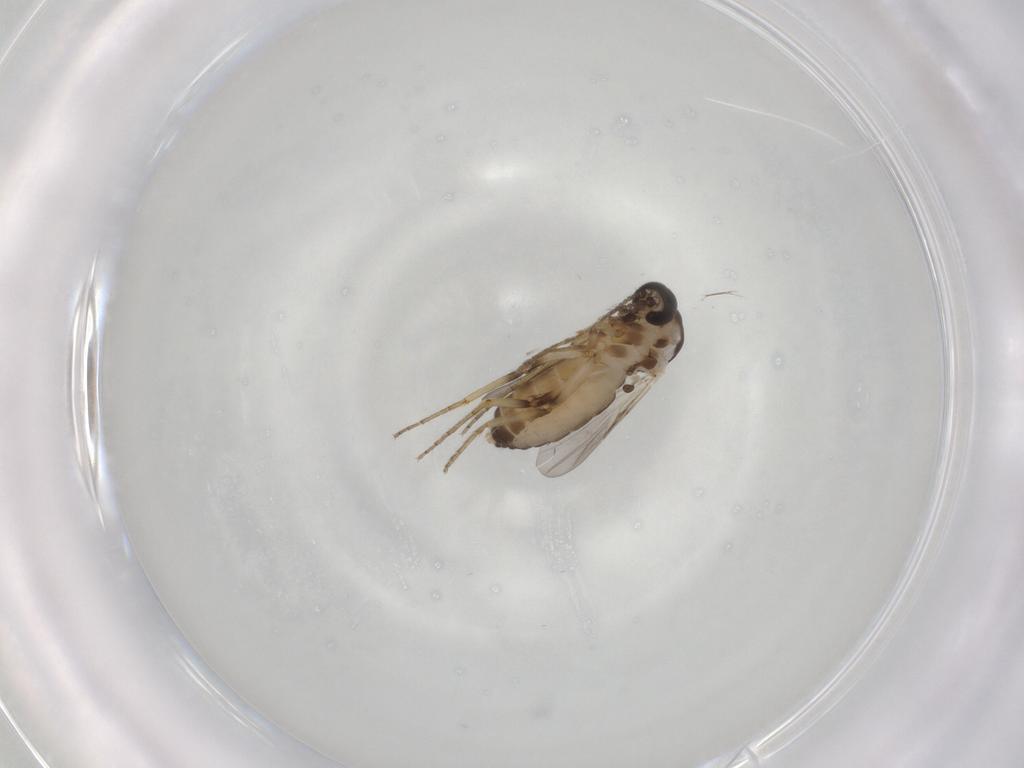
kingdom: Animalia
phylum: Arthropoda
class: Insecta
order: Diptera
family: Ceratopogonidae
